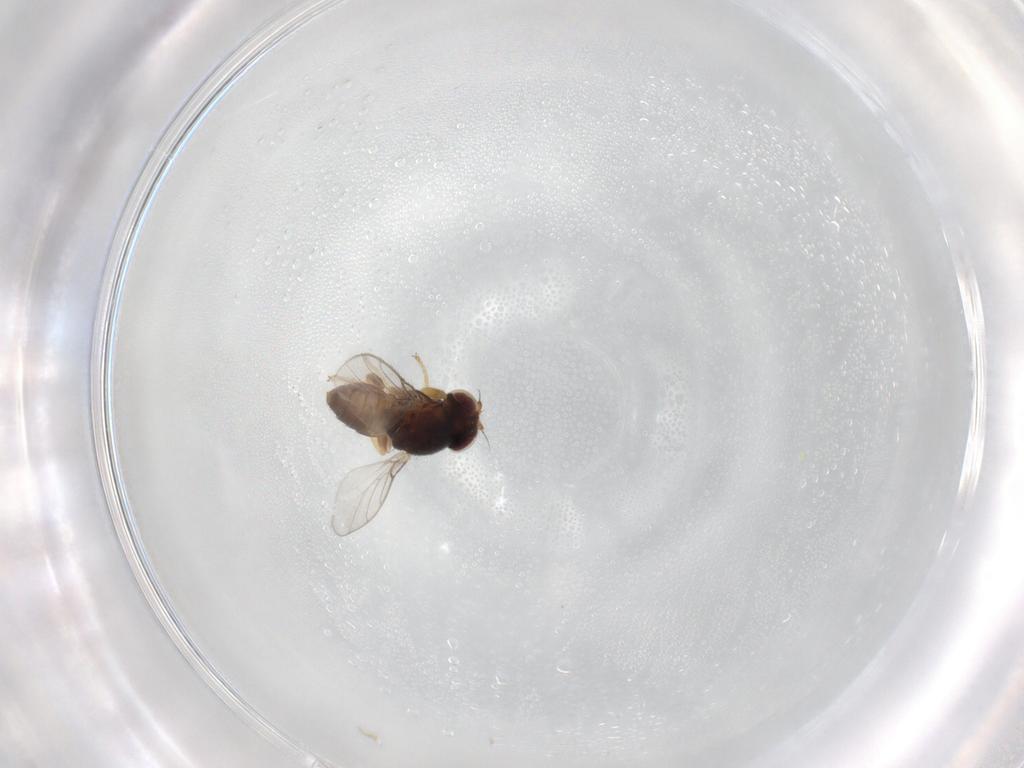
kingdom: Animalia
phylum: Arthropoda
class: Insecta
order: Diptera
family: Chloropidae
